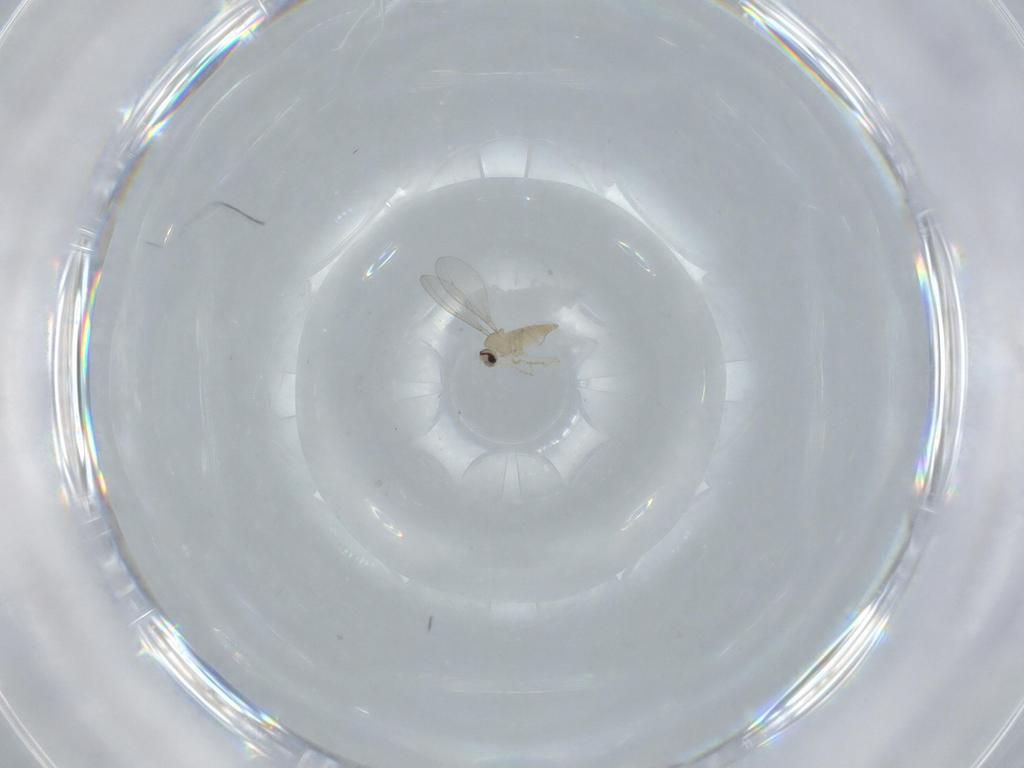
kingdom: Animalia
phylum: Arthropoda
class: Insecta
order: Diptera
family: Cecidomyiidae
